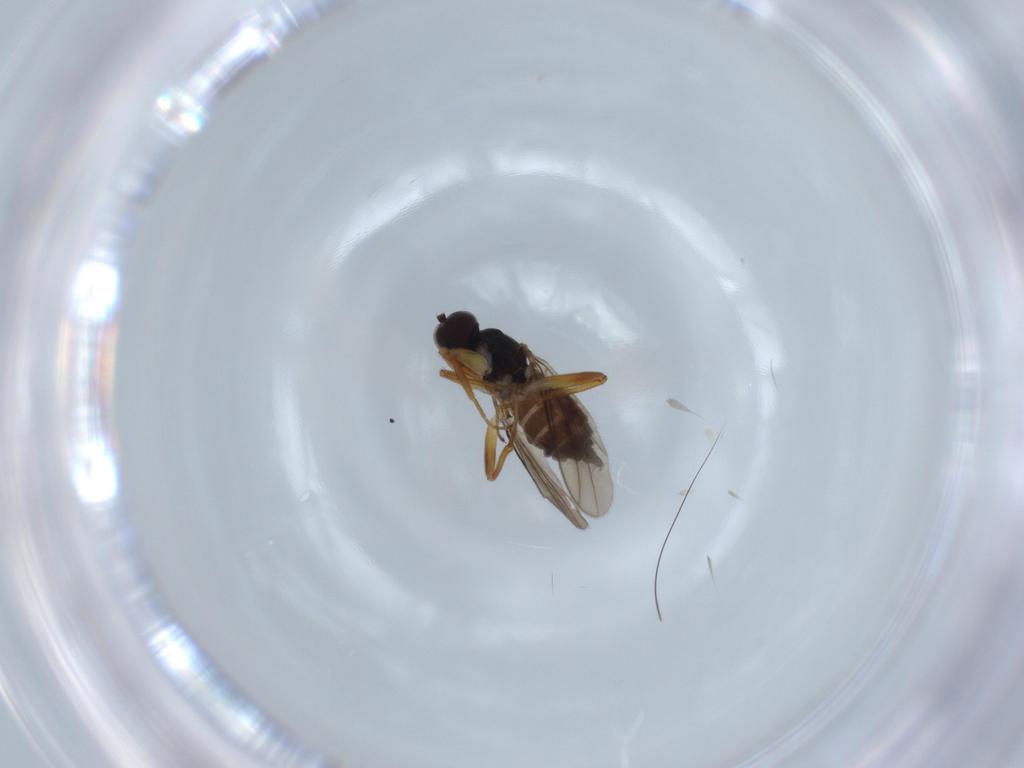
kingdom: Animalia
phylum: Arthropoda
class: Insecta
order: Diptera
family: Hybotidae
